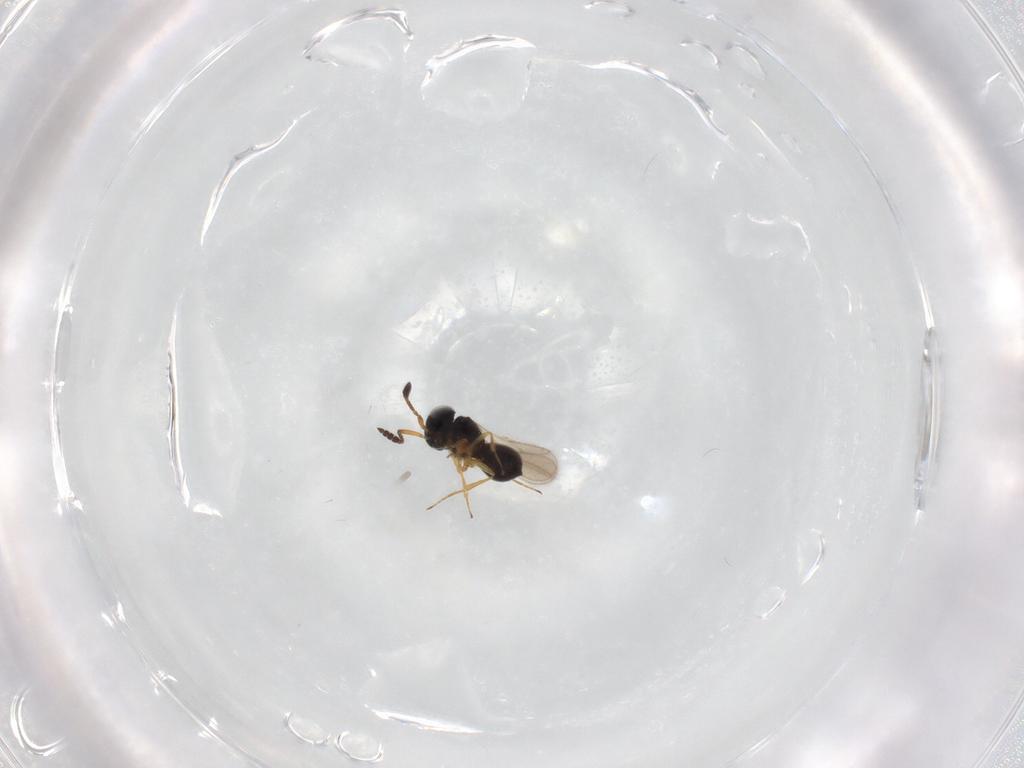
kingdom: Animalia
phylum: Arthropoda
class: Insecta
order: Hymenoptera
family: Scelionidae
